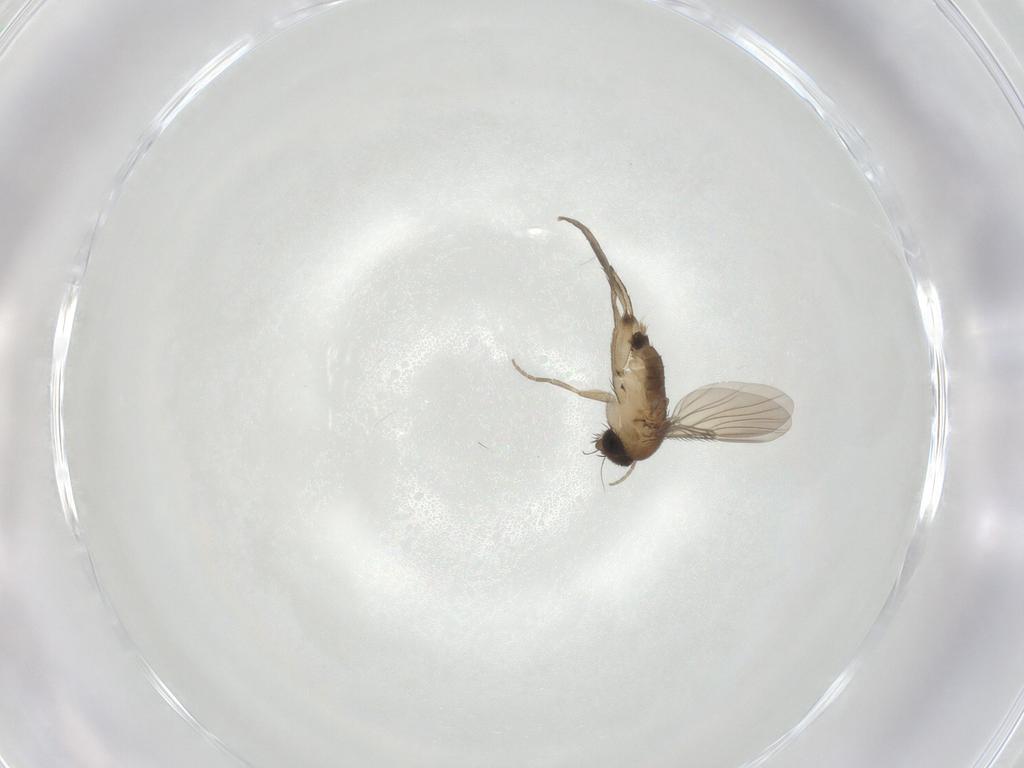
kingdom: Animalia
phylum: Arthropoda
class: Insecta
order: Diptera
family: Phoridae
